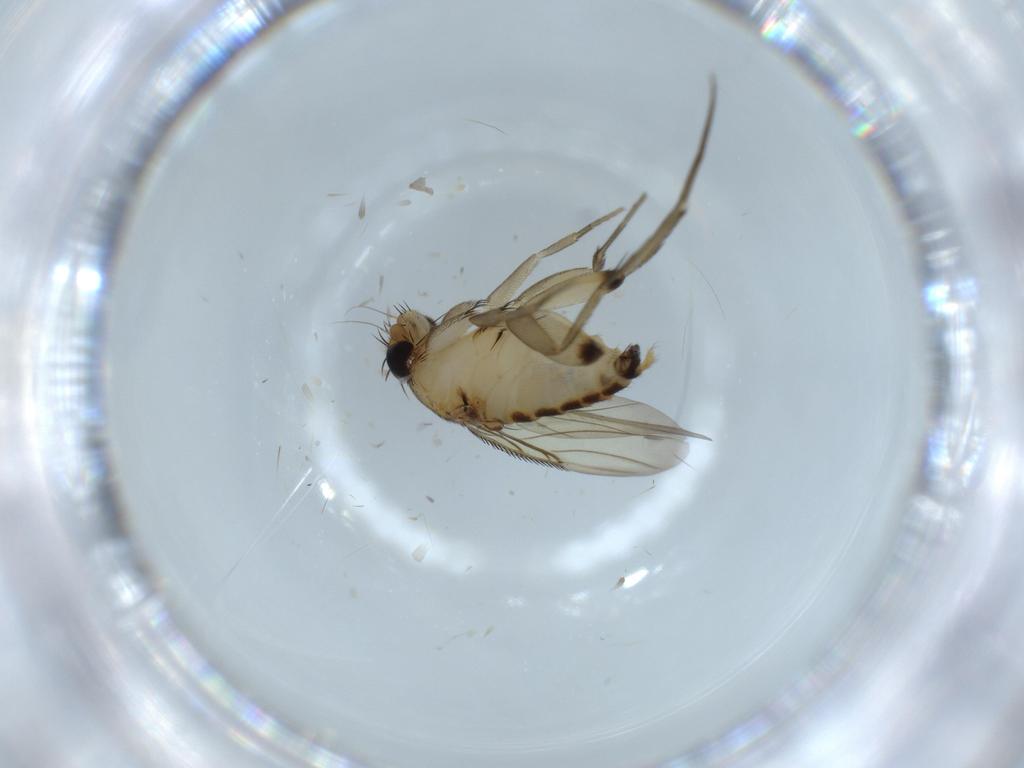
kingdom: Animalia
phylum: Arthropoda
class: Insecta
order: Diptera
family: Phoridae
